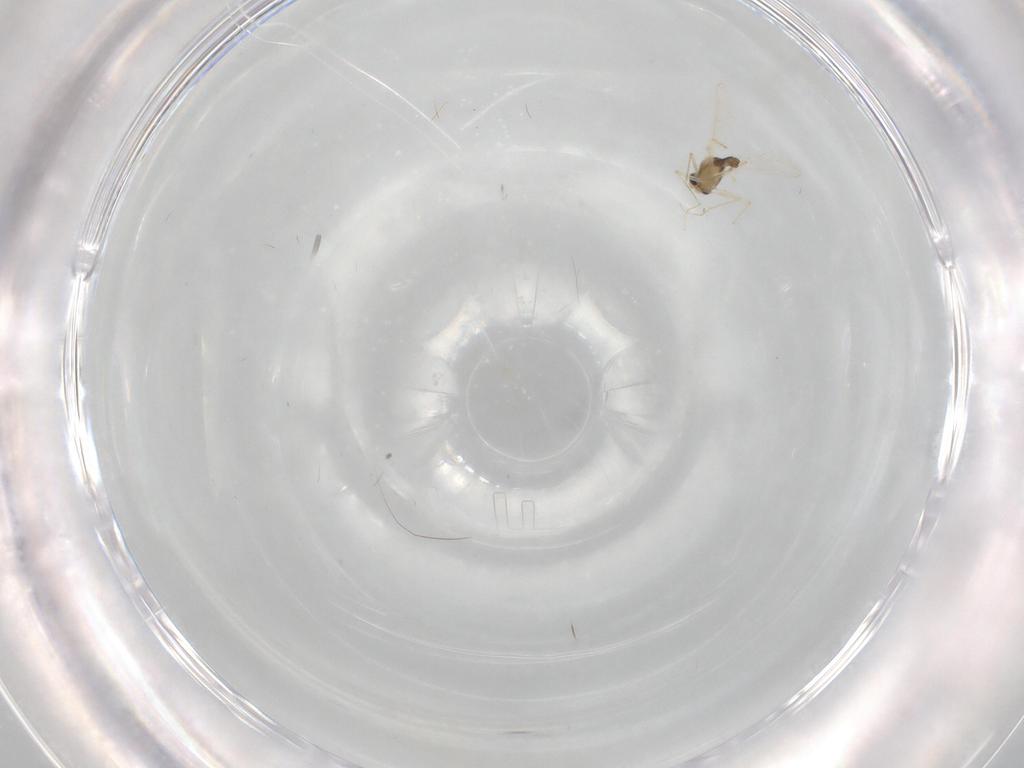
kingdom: Animalia
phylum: Arthropoda
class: Insecta
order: Diptera
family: Chironomidae
